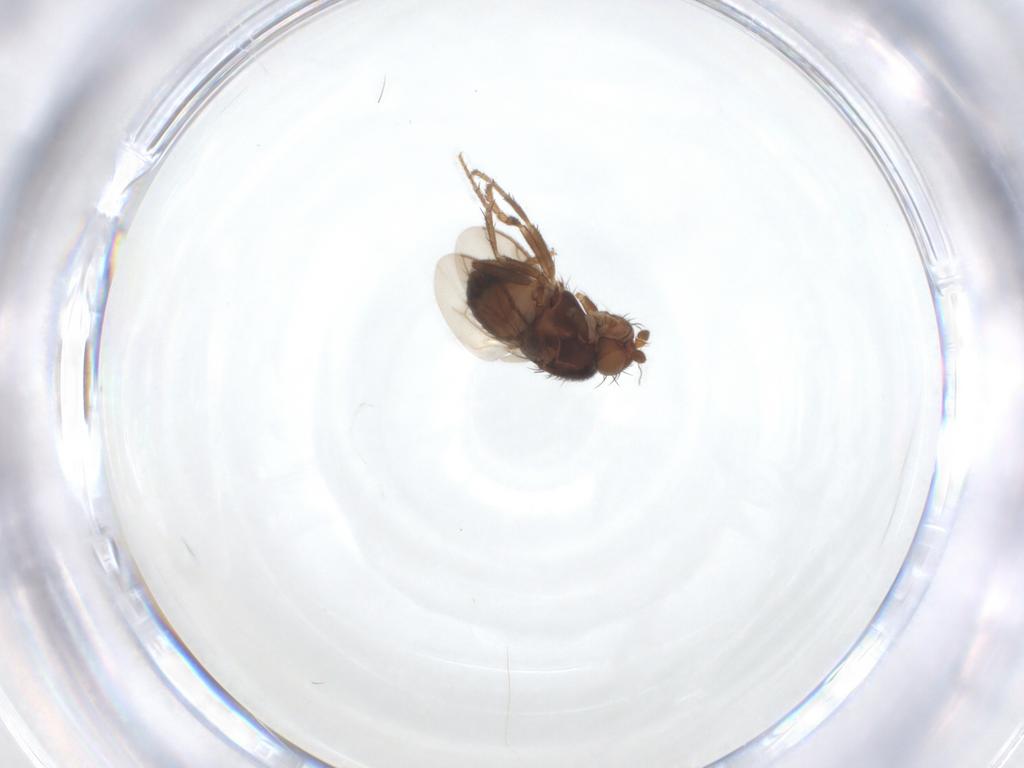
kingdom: Animalia
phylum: Arthropoda
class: Insecta
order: Diptera
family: Sphaeroceridae
